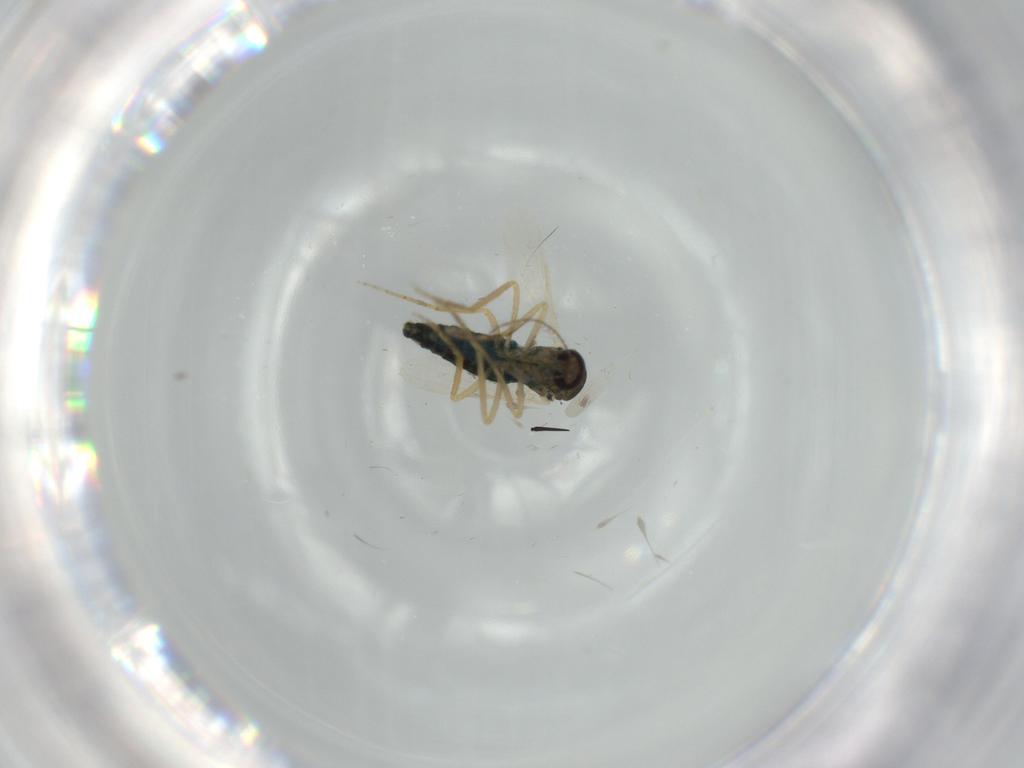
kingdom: Animalia
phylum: Arthropoda
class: Insecta
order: Diptera
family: Ceratopogonidae
